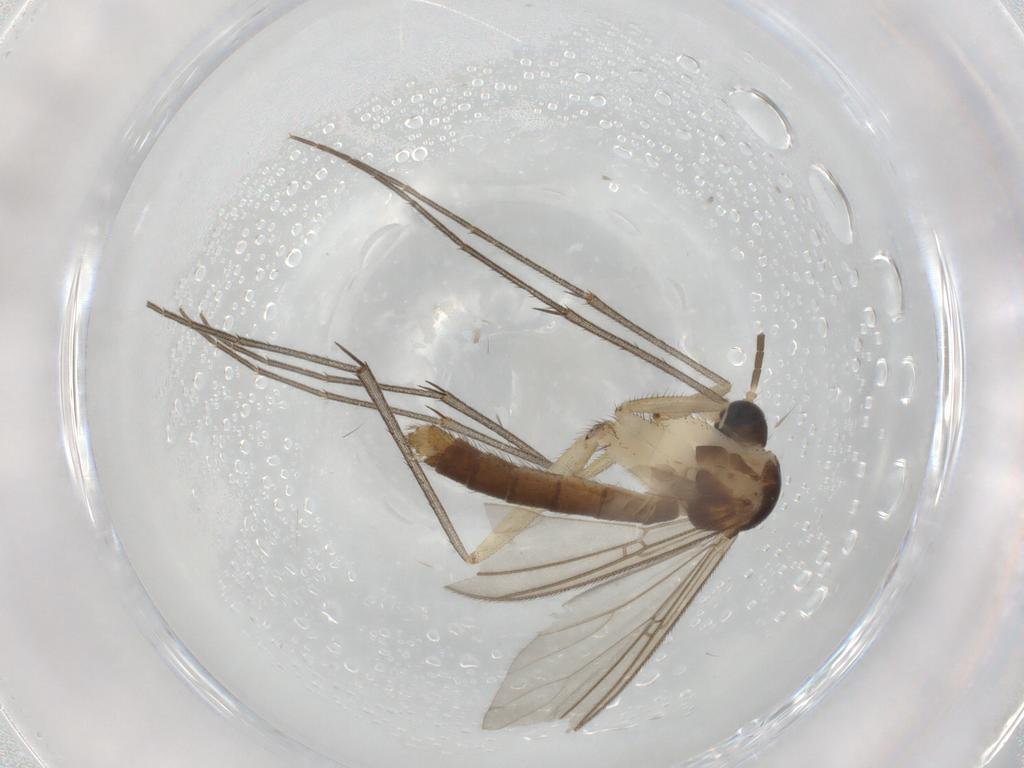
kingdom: Animalia
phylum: Arthropoda
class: Insecta
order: Diptera
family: Mycetophilidae
